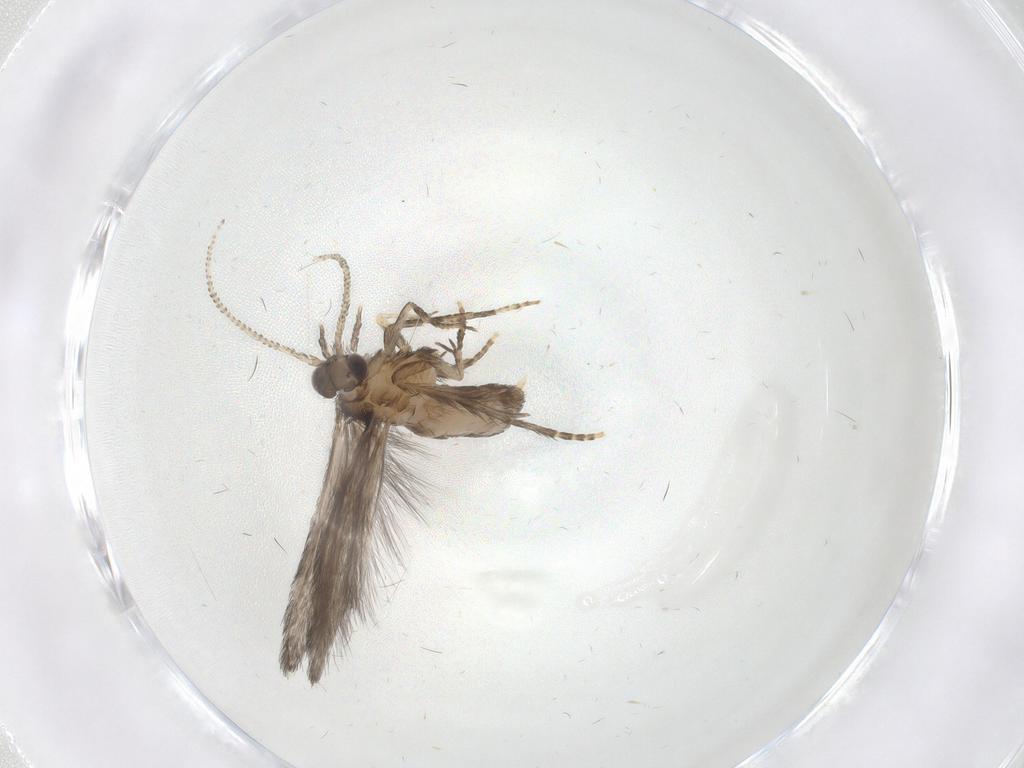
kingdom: Animalia
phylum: Arthropoda
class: Insecta
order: Trichoptera
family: Hydroptilidae
